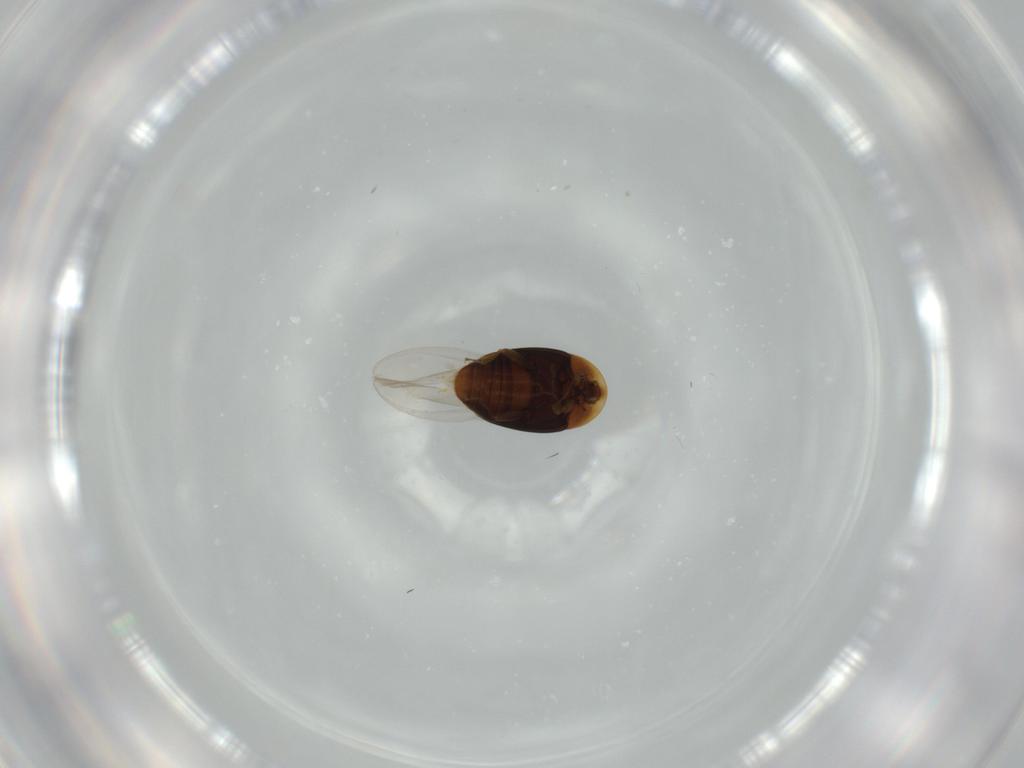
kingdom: Animalia
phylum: Arthropoda
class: Insecta
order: Coleoptera
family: Corylophidae
